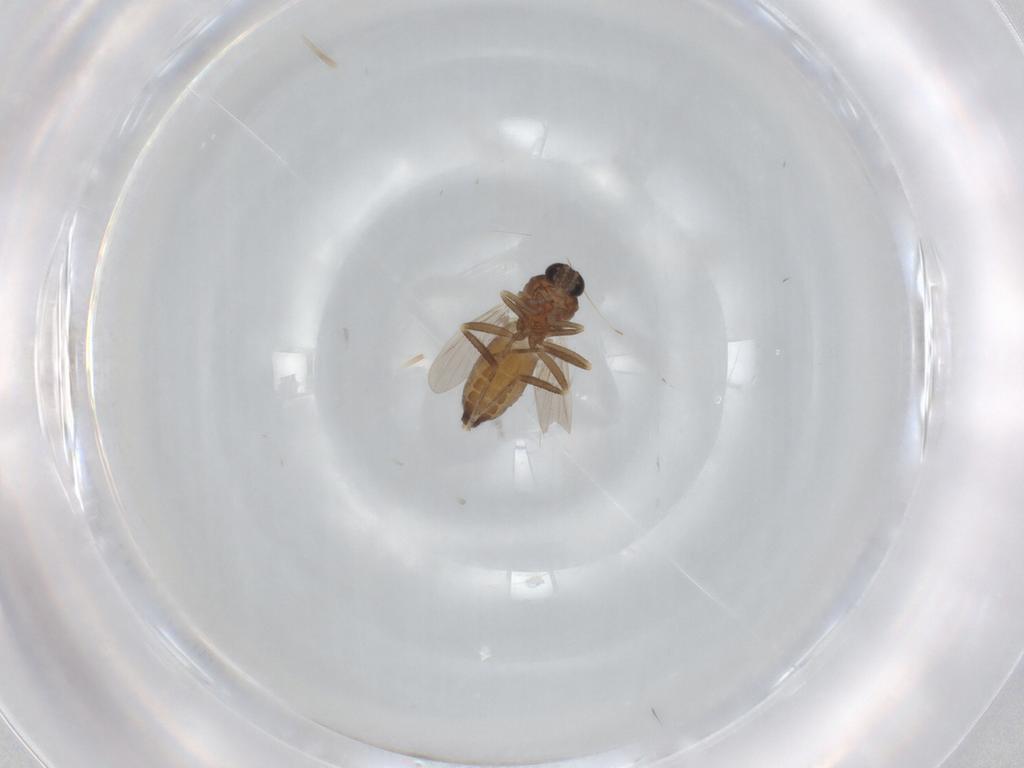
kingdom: Animalia
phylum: Arthropoda
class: Insecta
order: Diptera
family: Ceratopogonidae
